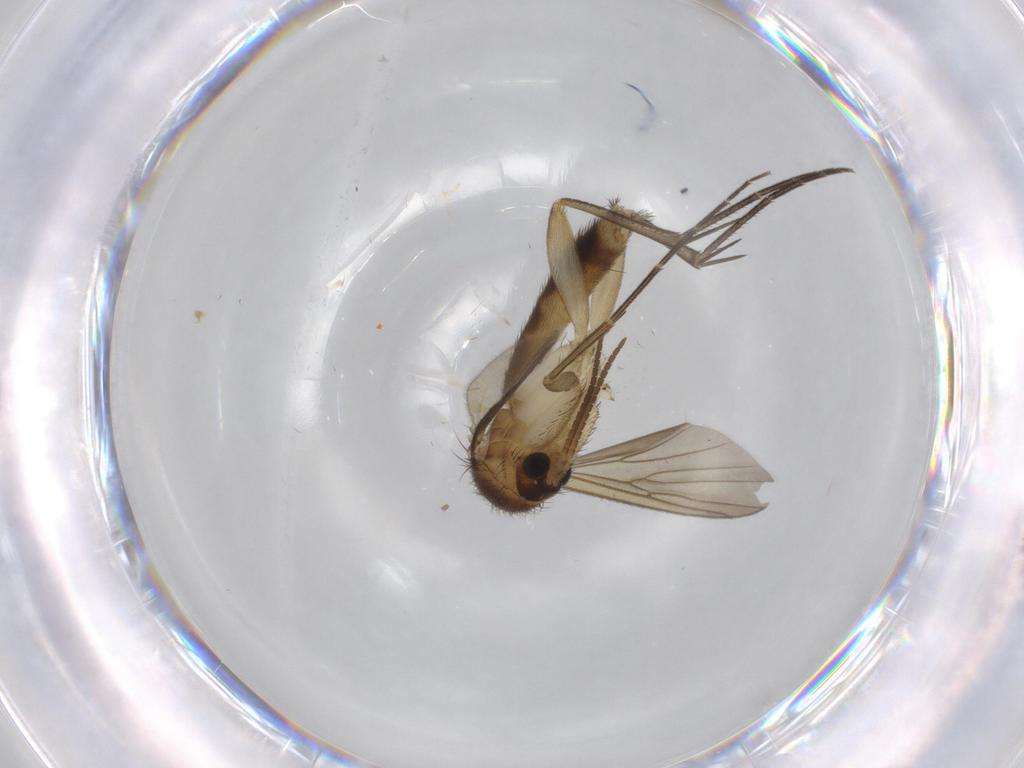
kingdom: Animalia
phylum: Arthropoda
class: Insecta
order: Diptera
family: Mycetophilidae
